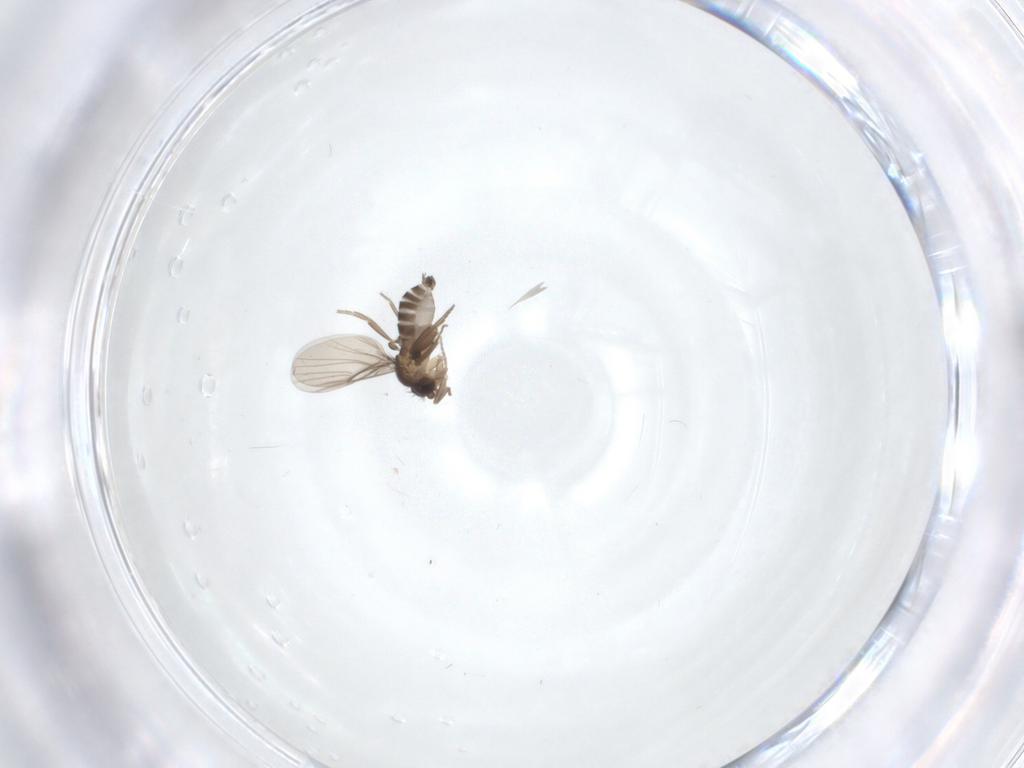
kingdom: Animalia
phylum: Arthropoda
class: Insecta
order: Diptera
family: Phoridae
